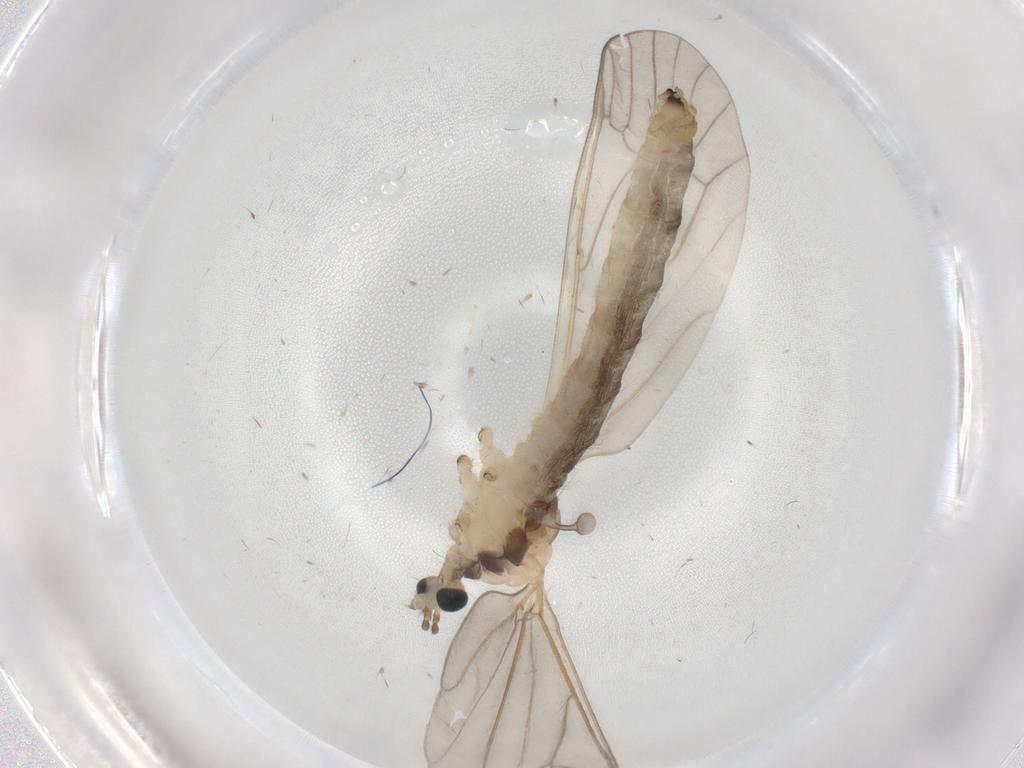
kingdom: Animalia
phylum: Arthropoda
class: Insecta
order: Diptera
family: Limoniidae
